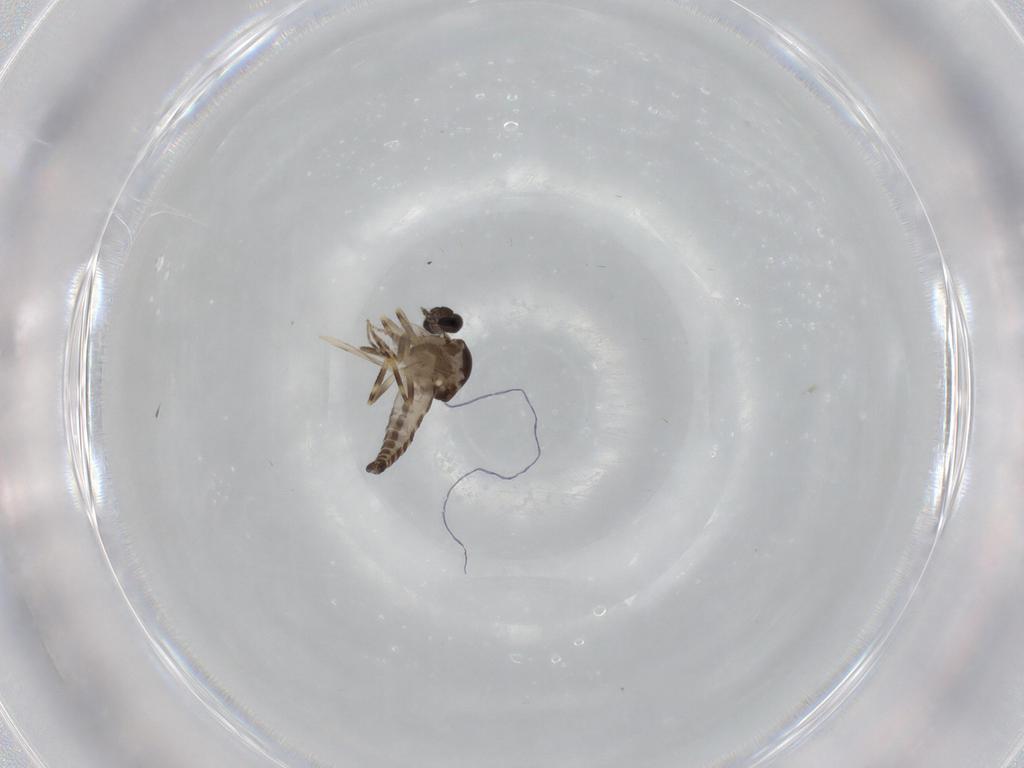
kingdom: Animalia
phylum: Arthropoda
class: Insecta
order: Diptera
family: Ceratopogonidae
